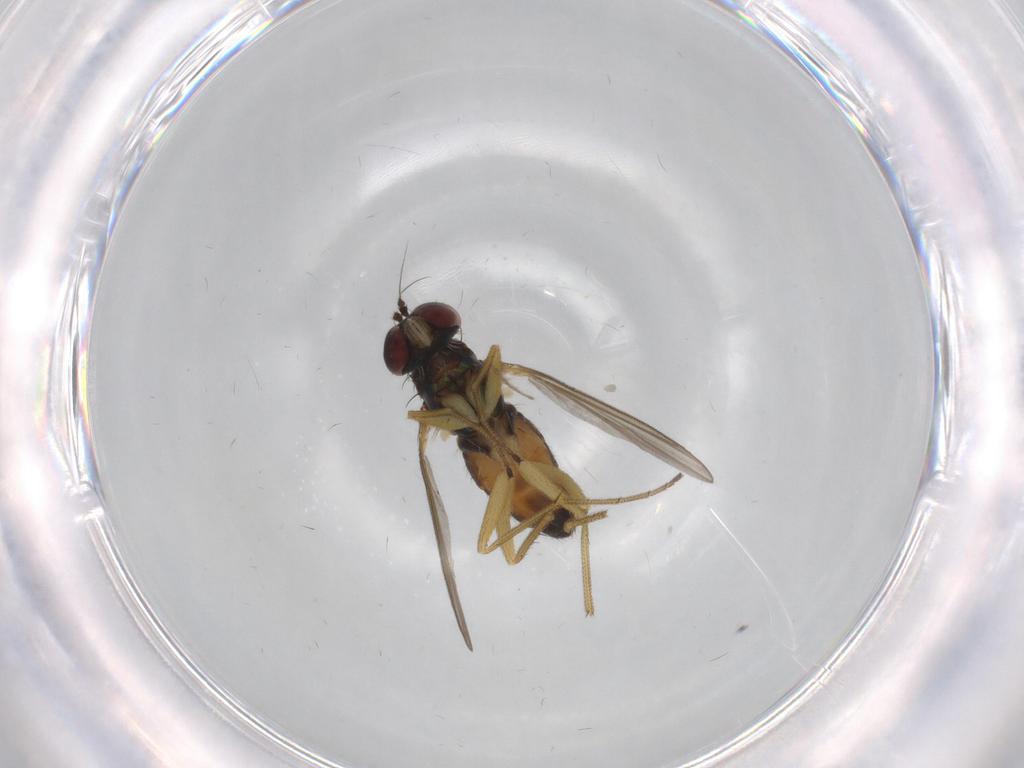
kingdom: Animalia
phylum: Arthropoda
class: Insecta
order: Diptera
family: Dolichopodidae
